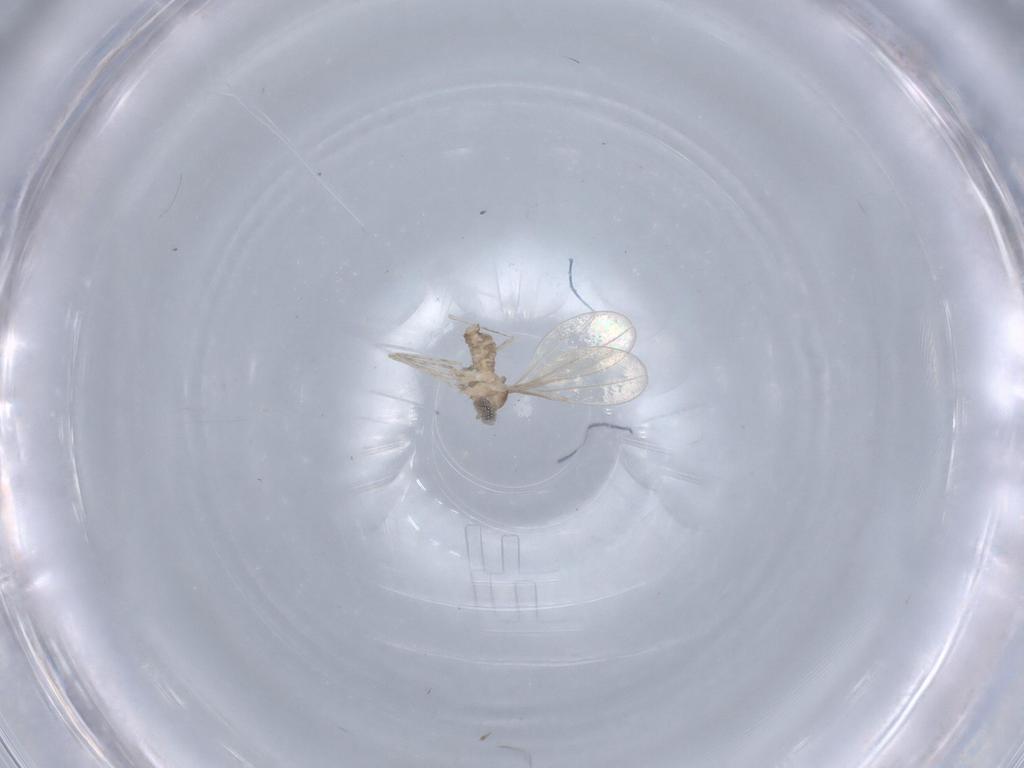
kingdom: Animalia
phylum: Arthropoda
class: Insecta
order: Diptera
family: Cecidomyiidae
